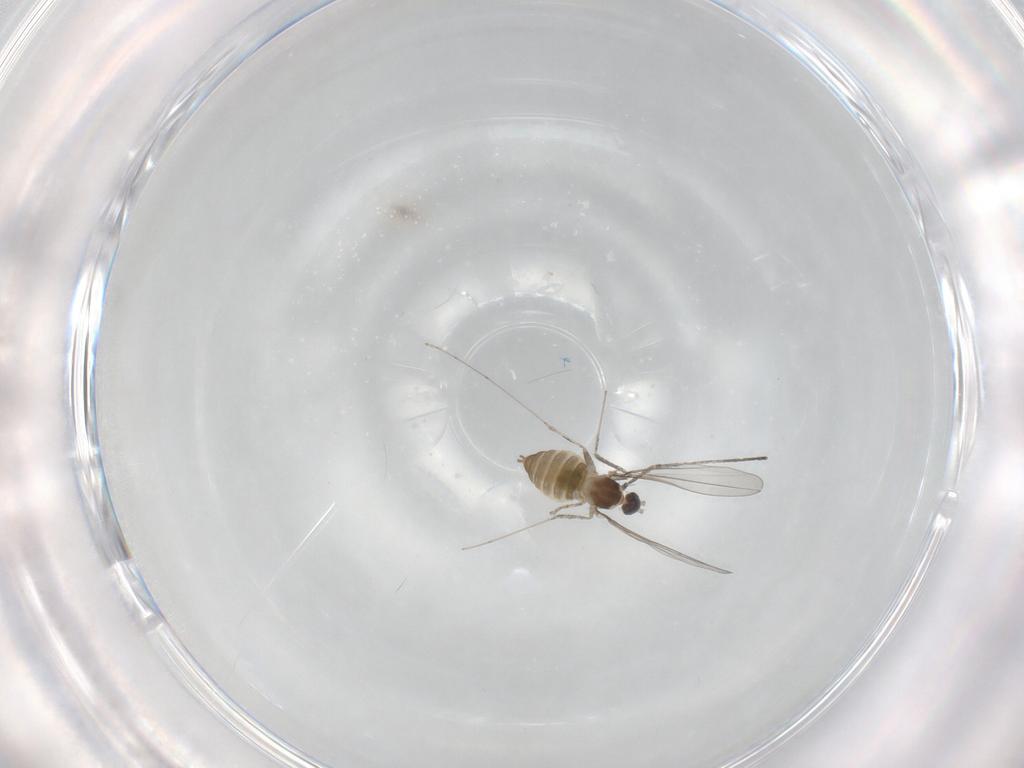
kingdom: Animalia
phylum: Arthropoda
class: Insecta
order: Diptera
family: Cecidomyiidae
